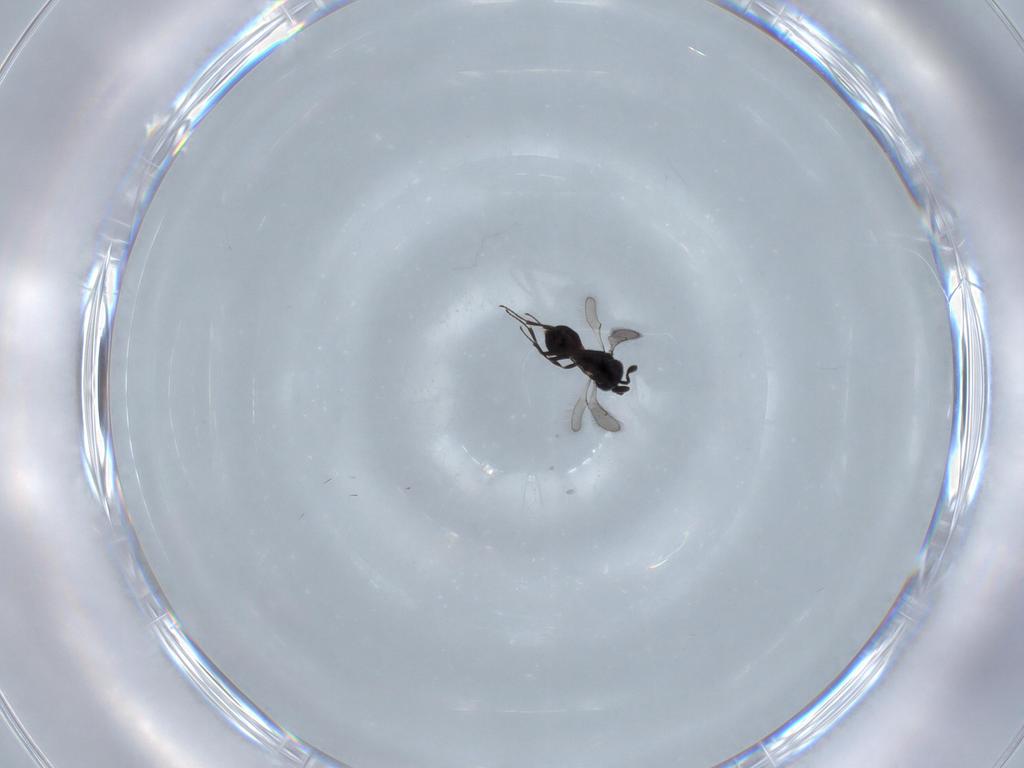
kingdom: Animalia
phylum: Arthropoda
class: Insecta
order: Hymenoptera
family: Scelionidae
